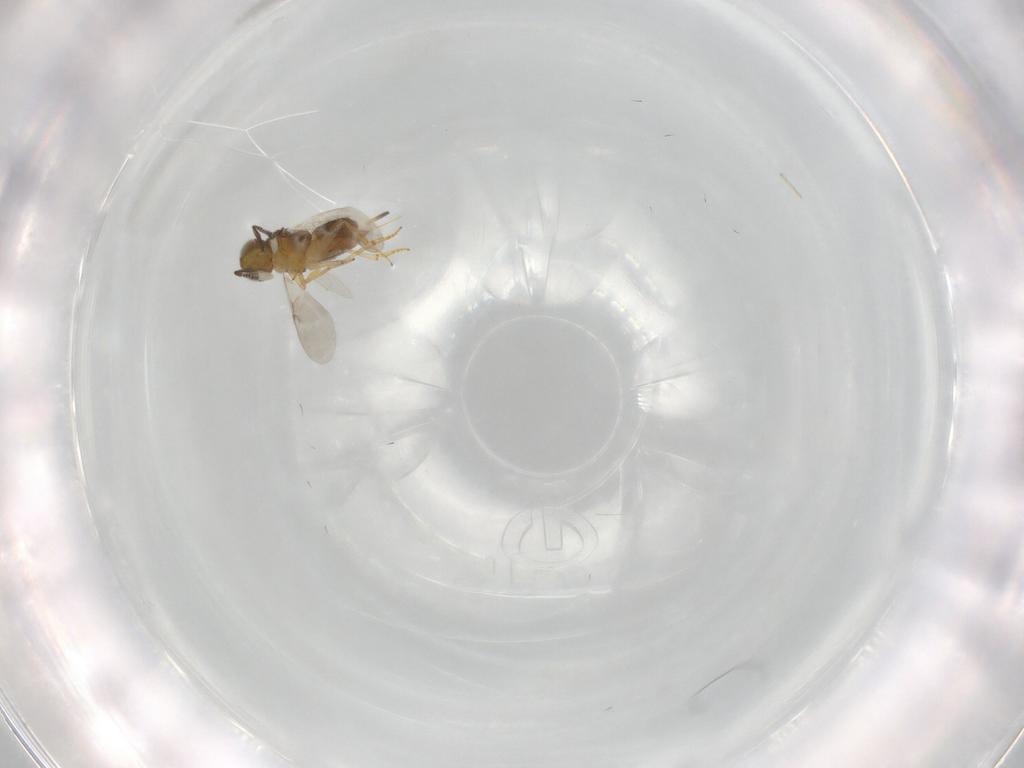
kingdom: Animalia
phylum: Arthropoda
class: Insecta
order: Hymenoptera
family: Encyrtidae
